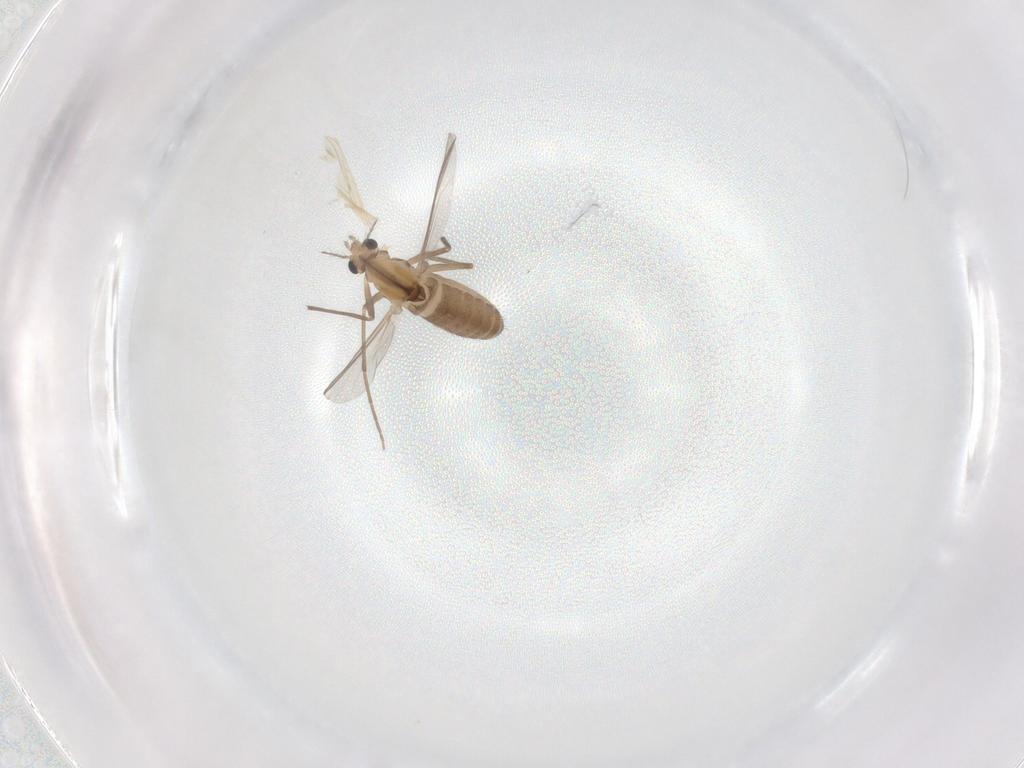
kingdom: Animalia
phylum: Arthropoda
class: Insecta
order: Diptera
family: Chironomidae
